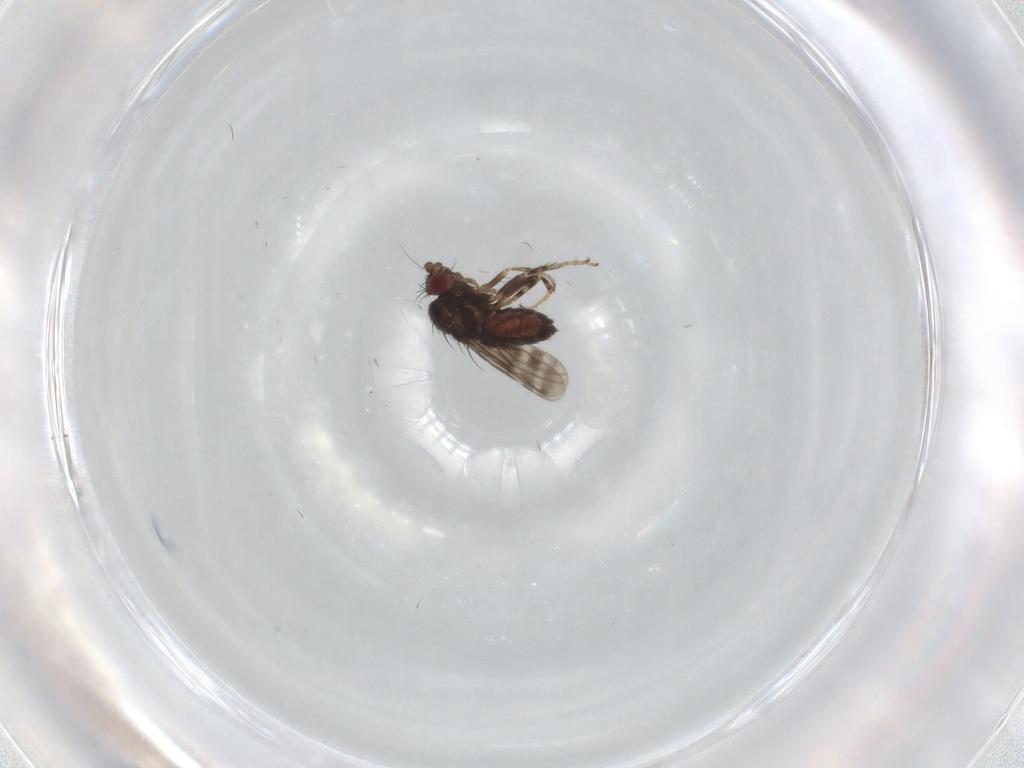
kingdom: Animalia
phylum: Arthropoda
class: Insecta
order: Diptera
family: Sphaeroceridae
